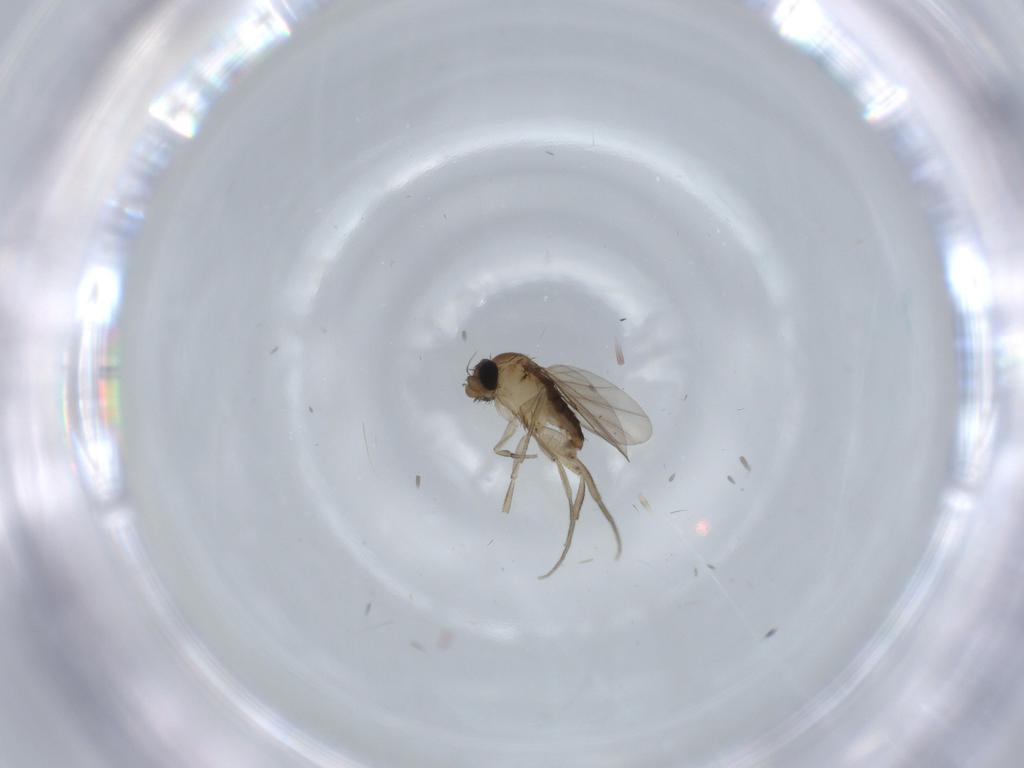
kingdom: Animalia
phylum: Arthropoda
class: Insecta
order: Diptera
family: Phoridae
